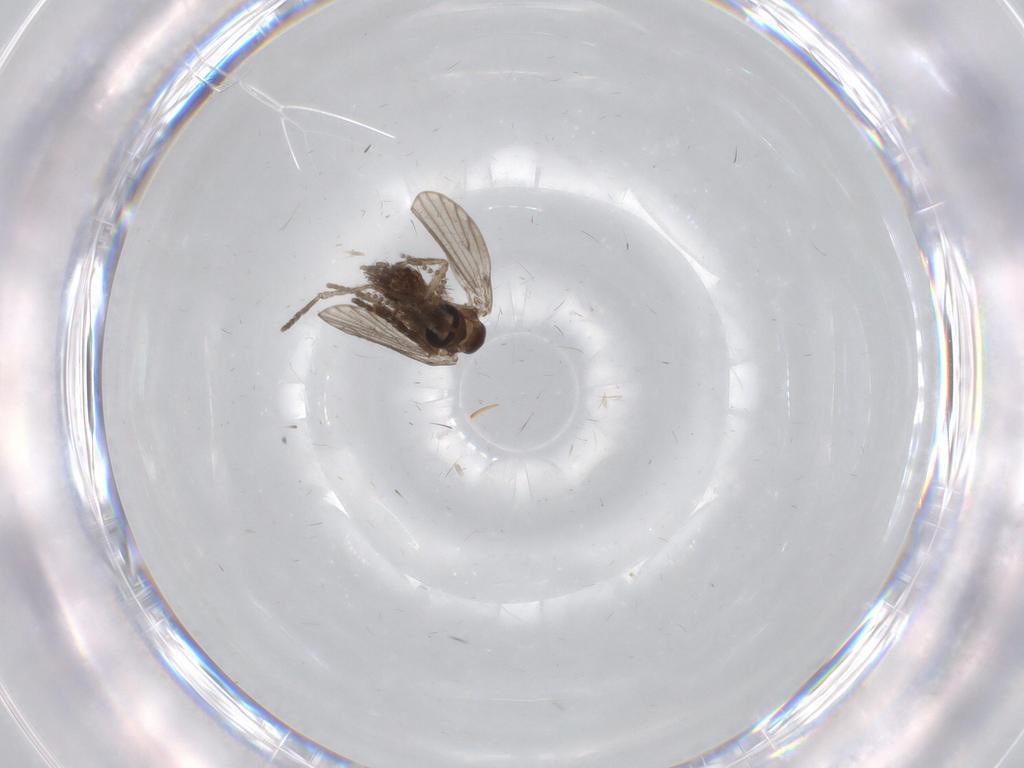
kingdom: Animalia
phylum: Arthropoda
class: Insecta
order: Diptera
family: Psychodidae
